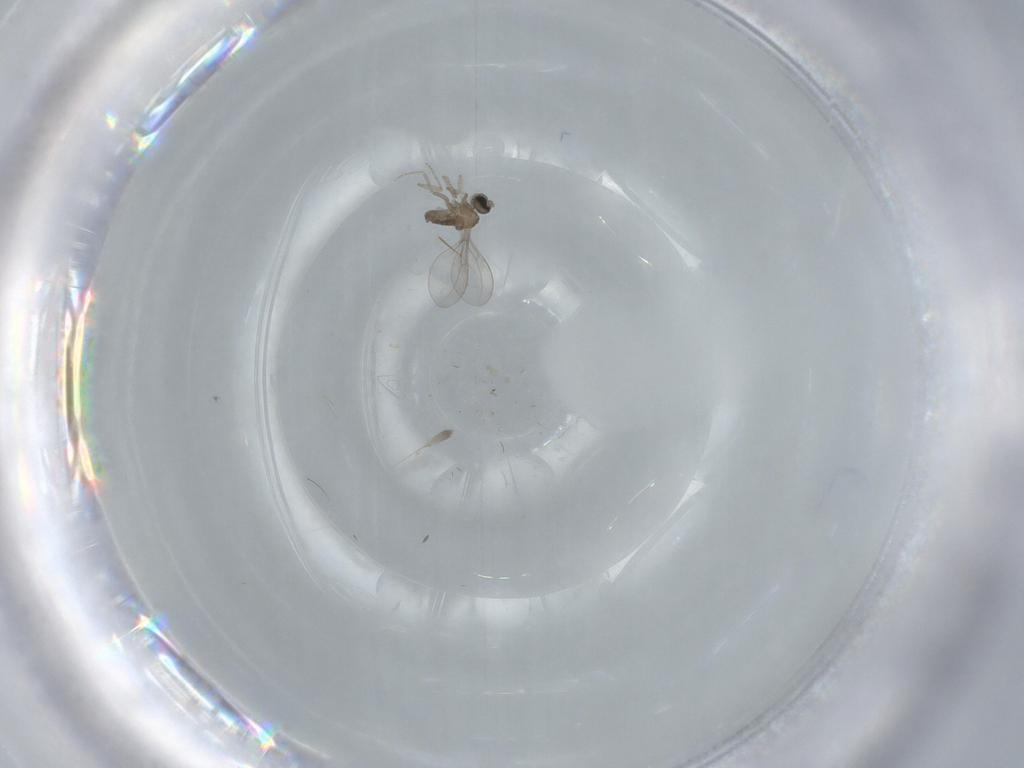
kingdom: Animalia
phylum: Arthropoda
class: Insecta
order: Diptera
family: Cecidomyiidae
